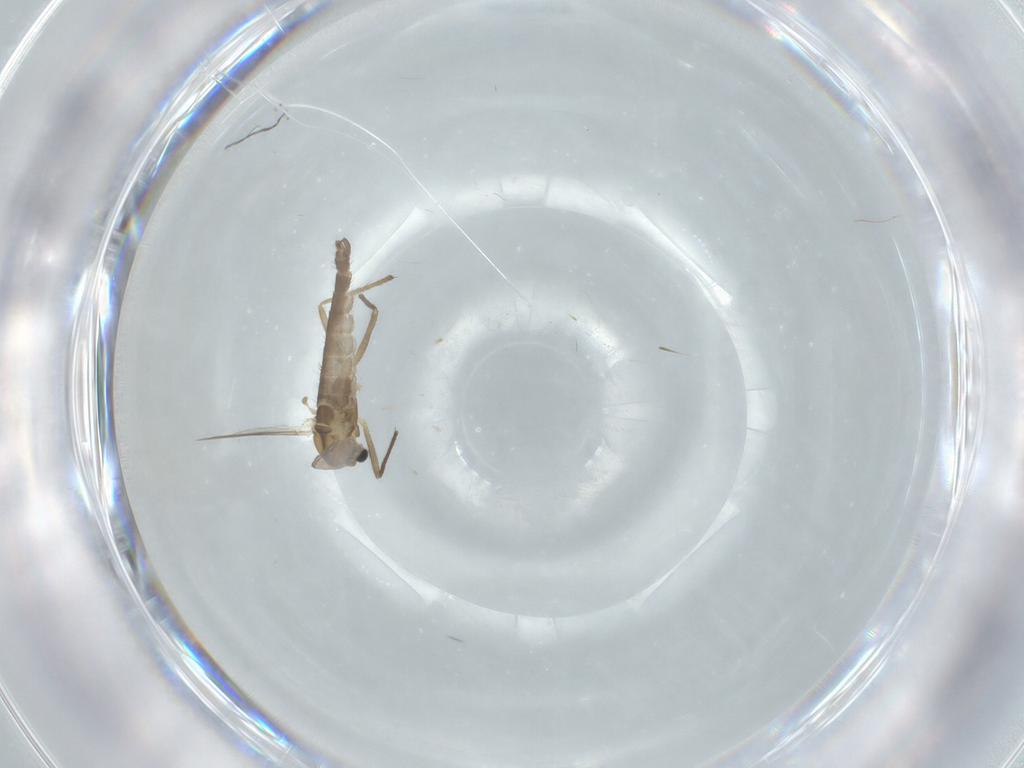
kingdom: Animalia
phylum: Arthropoda
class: Insecta
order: Diptera
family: Chironomidae
